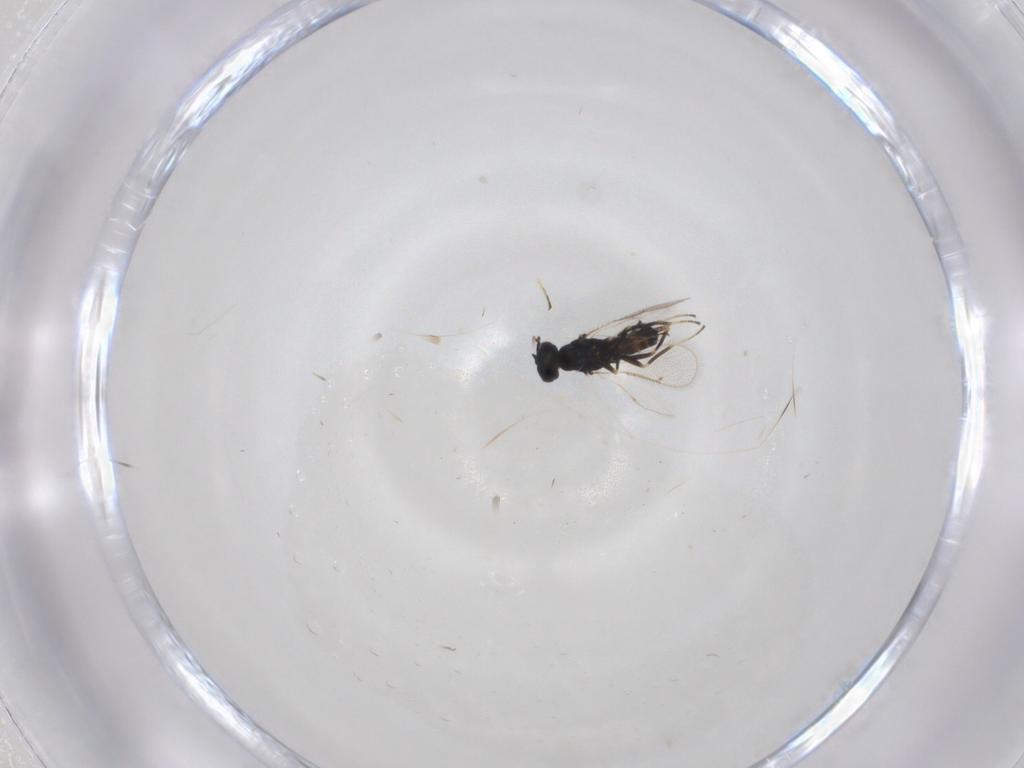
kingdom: Animalia
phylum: Arthropoda
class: Insecta
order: Hymenoptera
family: Eulophidae
